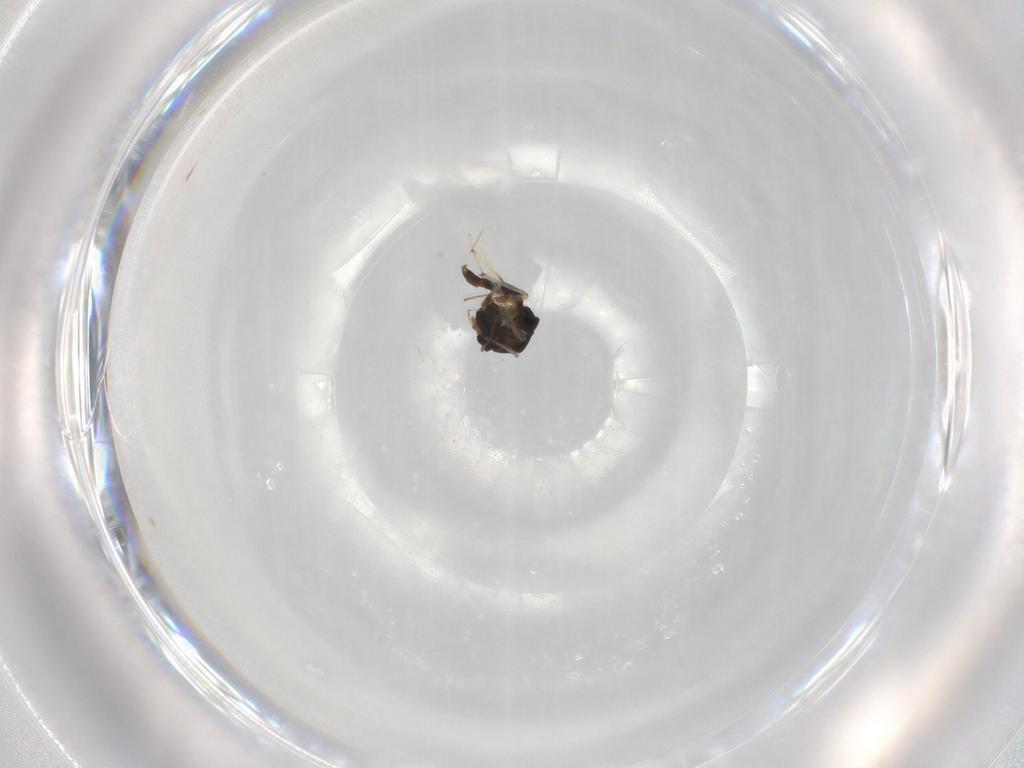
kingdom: Animalia
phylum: Arthropoda
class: Insecta
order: Diptera
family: Chironomidae
